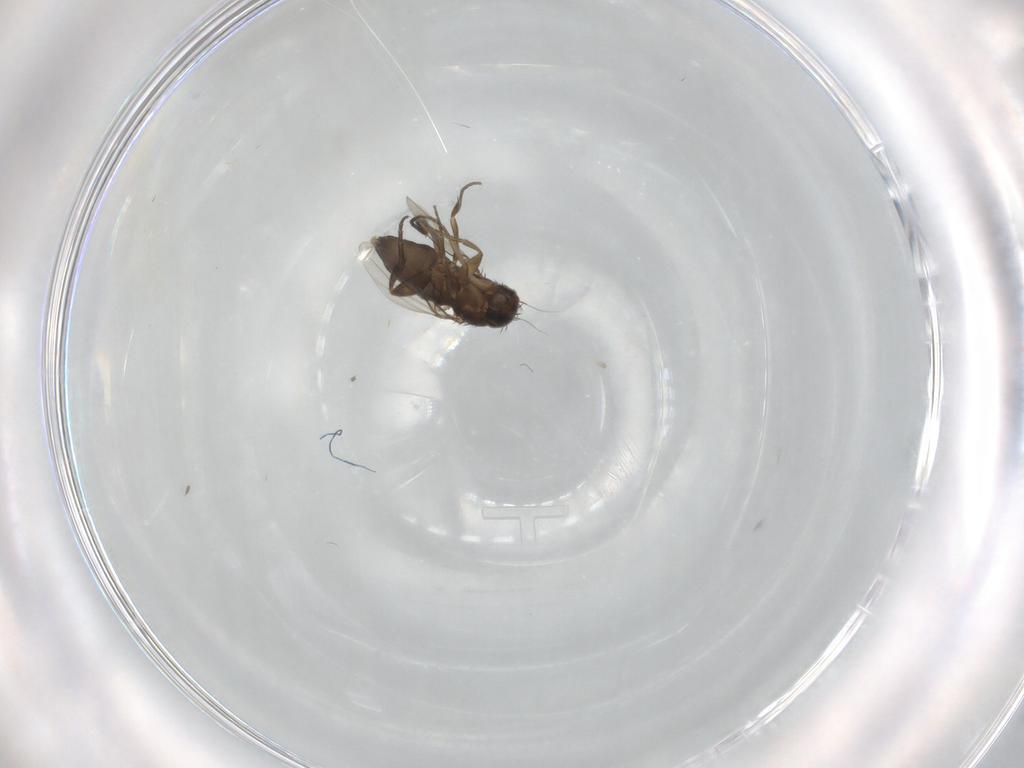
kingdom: Animalia
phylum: Arthropoda
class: Insecta
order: Diptera
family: Phoridae
